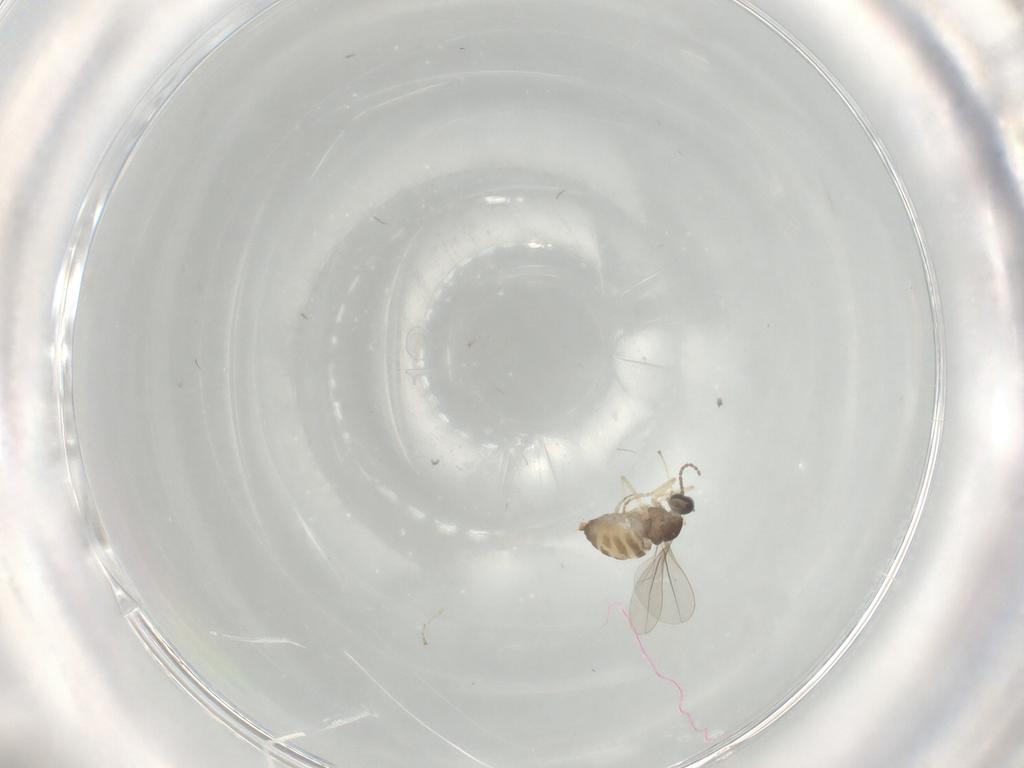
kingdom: Animalia
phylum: Arthropoda
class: Insecta
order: Diptera
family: Cecidomyiidae
